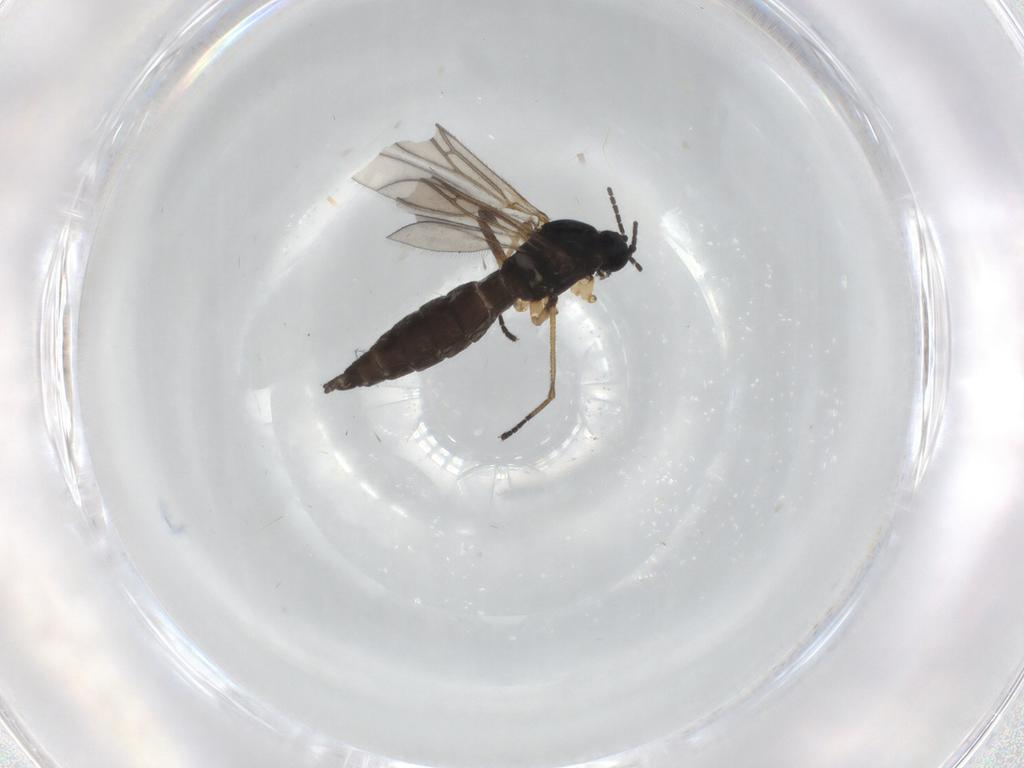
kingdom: Animalia
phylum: Arthropoda
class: Insecta
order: Diptera
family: Sciaridae
